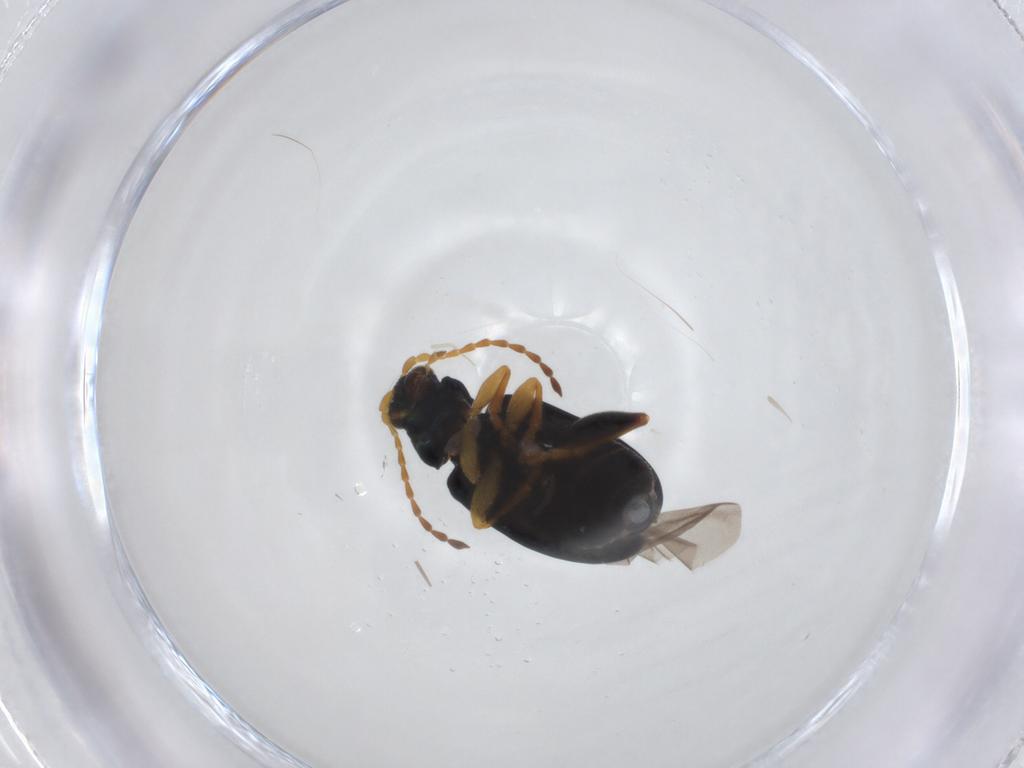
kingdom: Animalia
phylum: Arthropoda
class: Insecta
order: Coleoptera
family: Chrysomelidae
